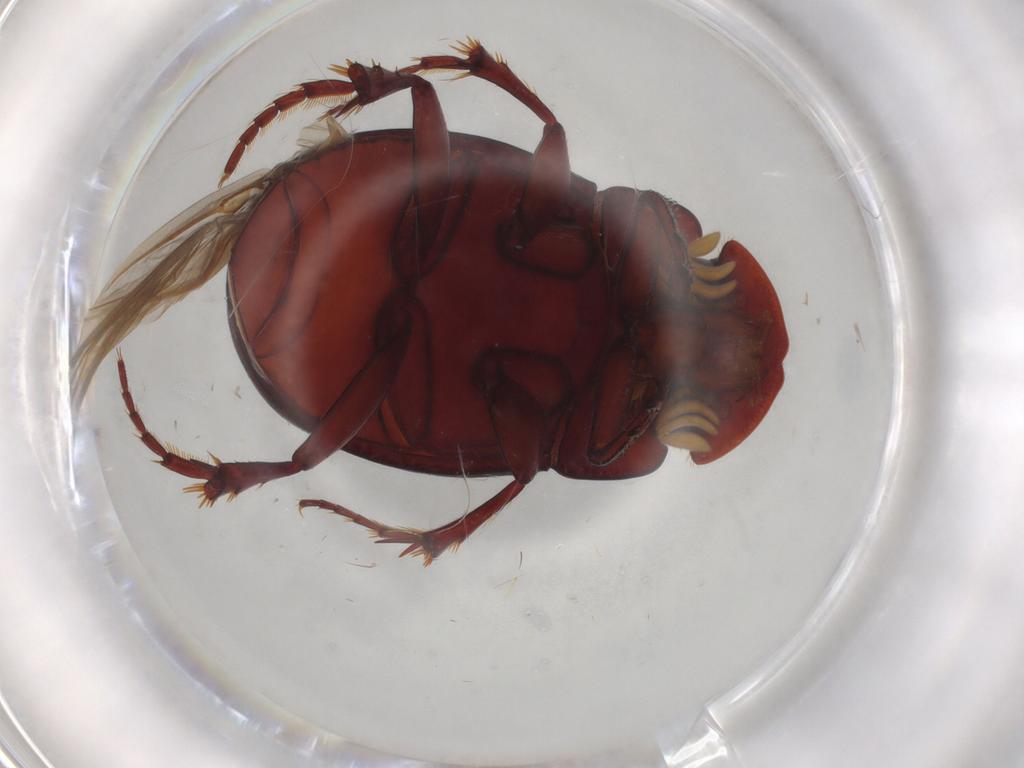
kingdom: Animalia
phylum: Arthropoda
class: Insecta
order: Coleoptera
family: Scarabaeidae
